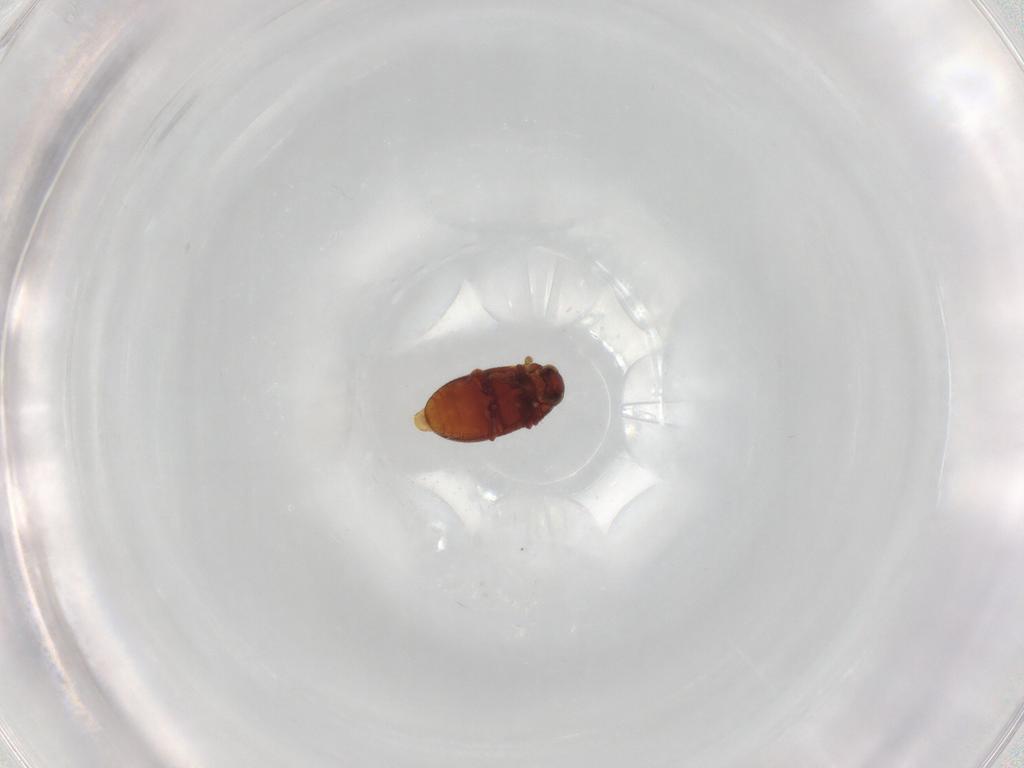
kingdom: Animalia
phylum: Arthropoda
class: Insecta
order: Coleoptera
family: Ptinidae
